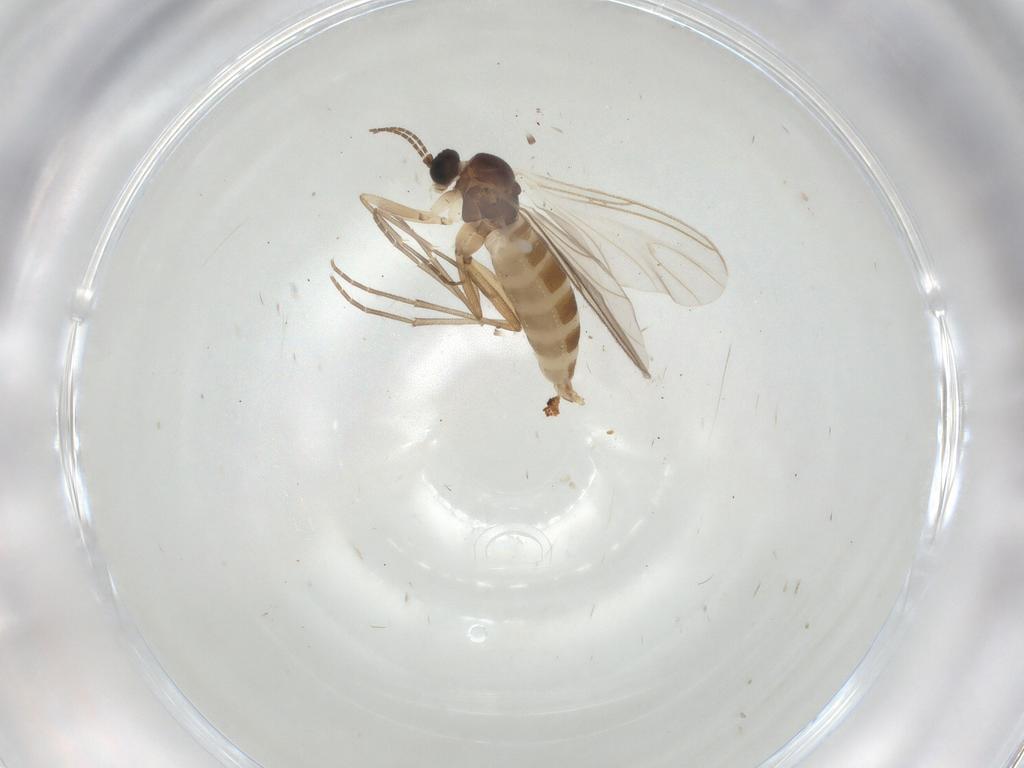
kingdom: Animalia
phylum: Arthropoda
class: Insecta
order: Diptera
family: Sciaridae
